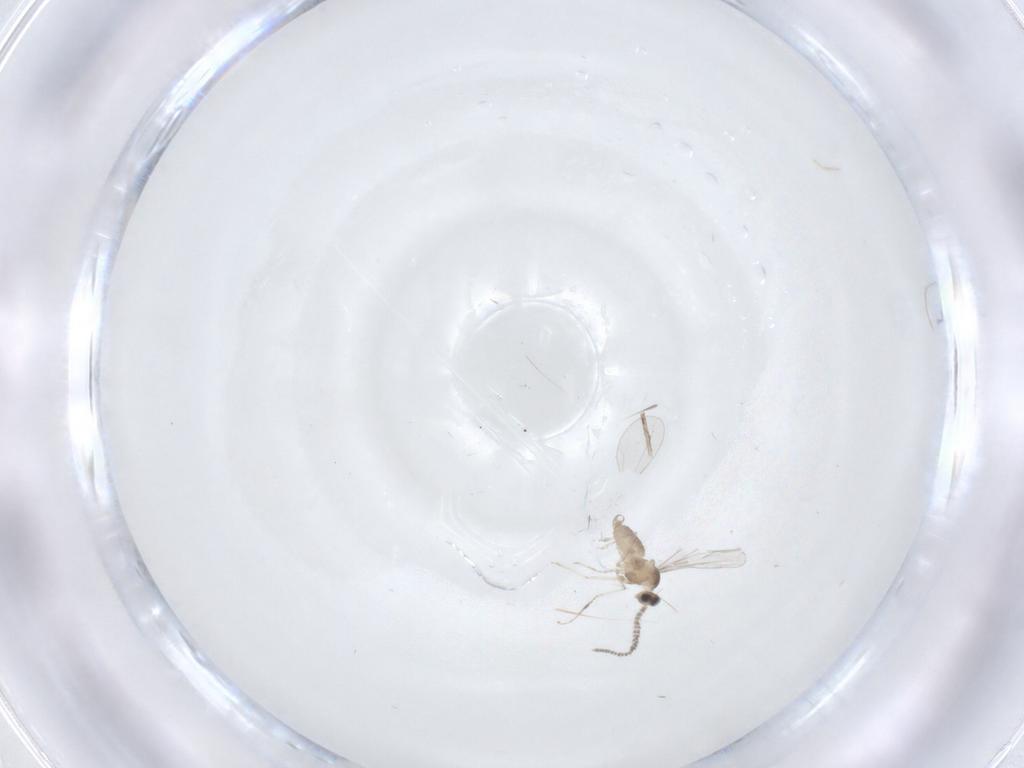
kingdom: Animalia
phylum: Arthropoda
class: Insecta
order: Diptera
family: Cecidomyiidae
